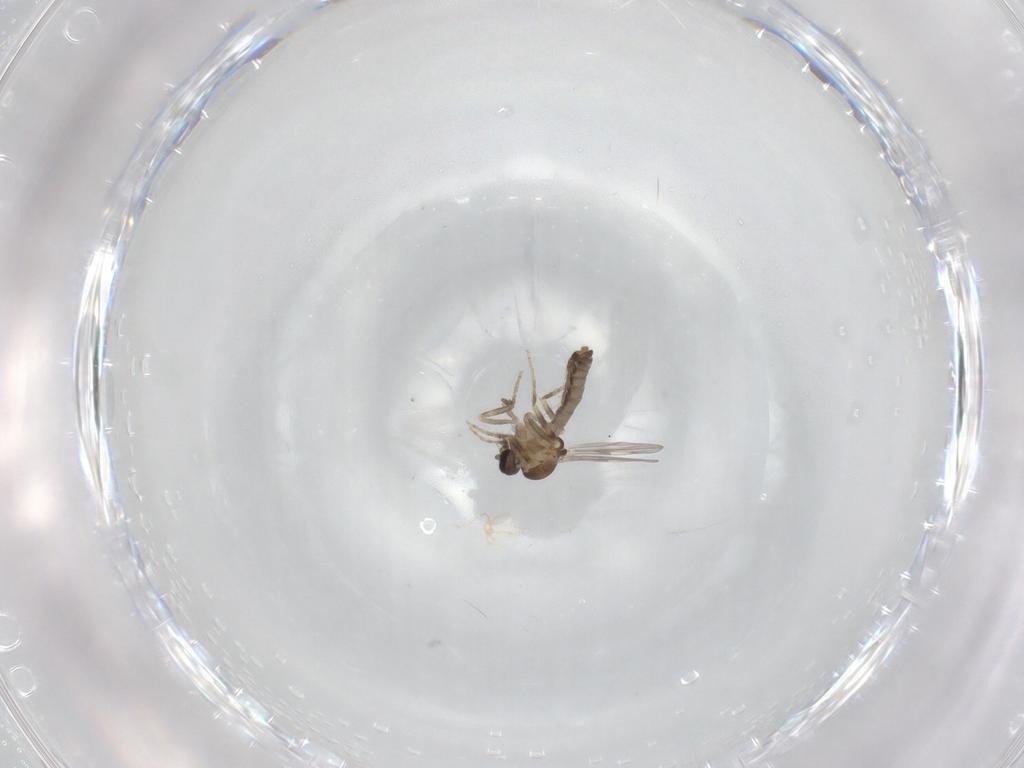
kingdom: Animalia
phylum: Arthropoda
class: Insecta
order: Diptera
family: Ceratopogonidae
